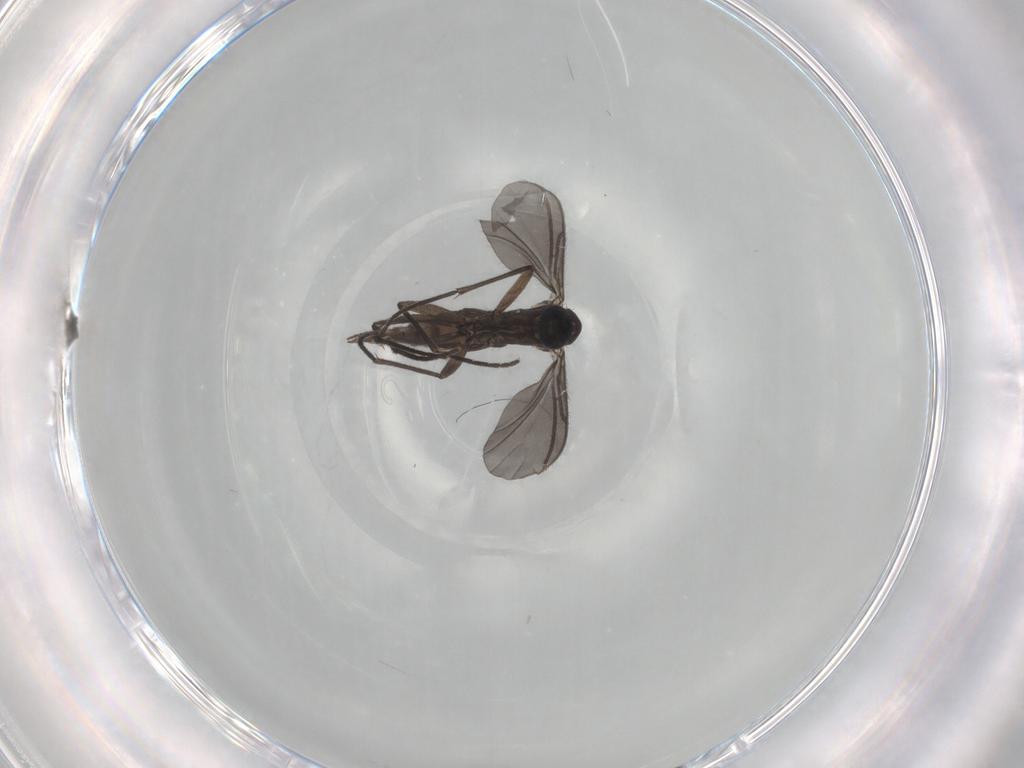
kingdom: Animalia
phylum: Arthropoda
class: Insecta
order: Diptera
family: Sciaridae
